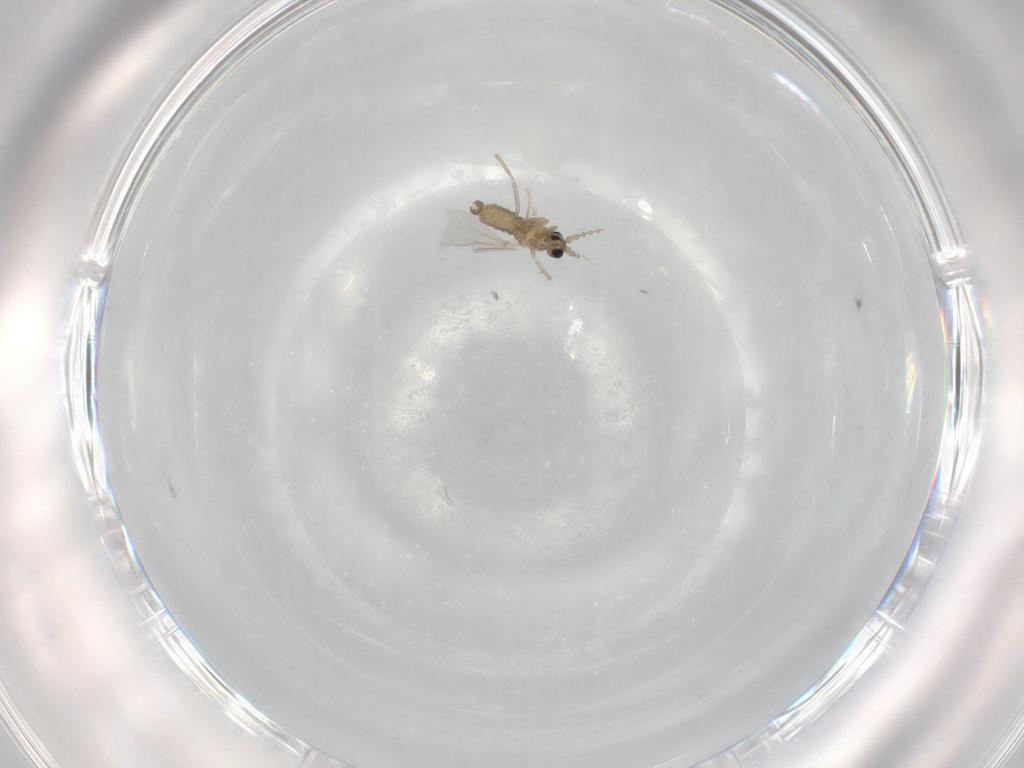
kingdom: Animalia
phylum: Arthropoda
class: Insecta
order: Diptera
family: Cecidomyiidae
